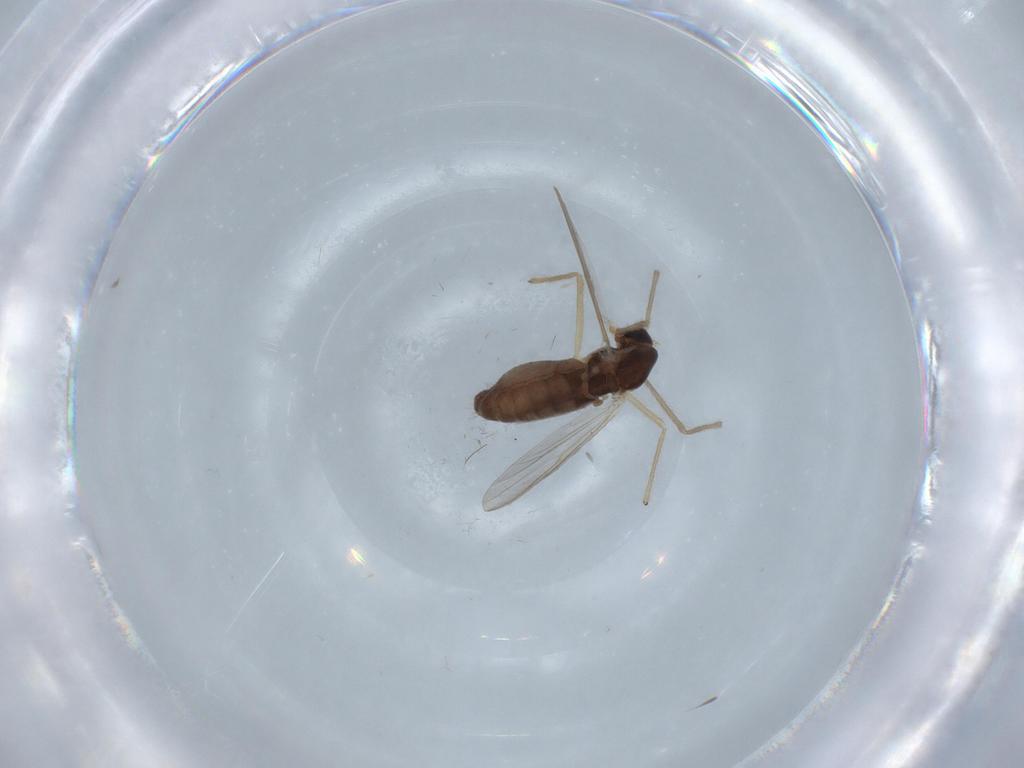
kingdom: Animalia
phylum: Arthropoda
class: Insecta
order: Diptera
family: Chironomidae
